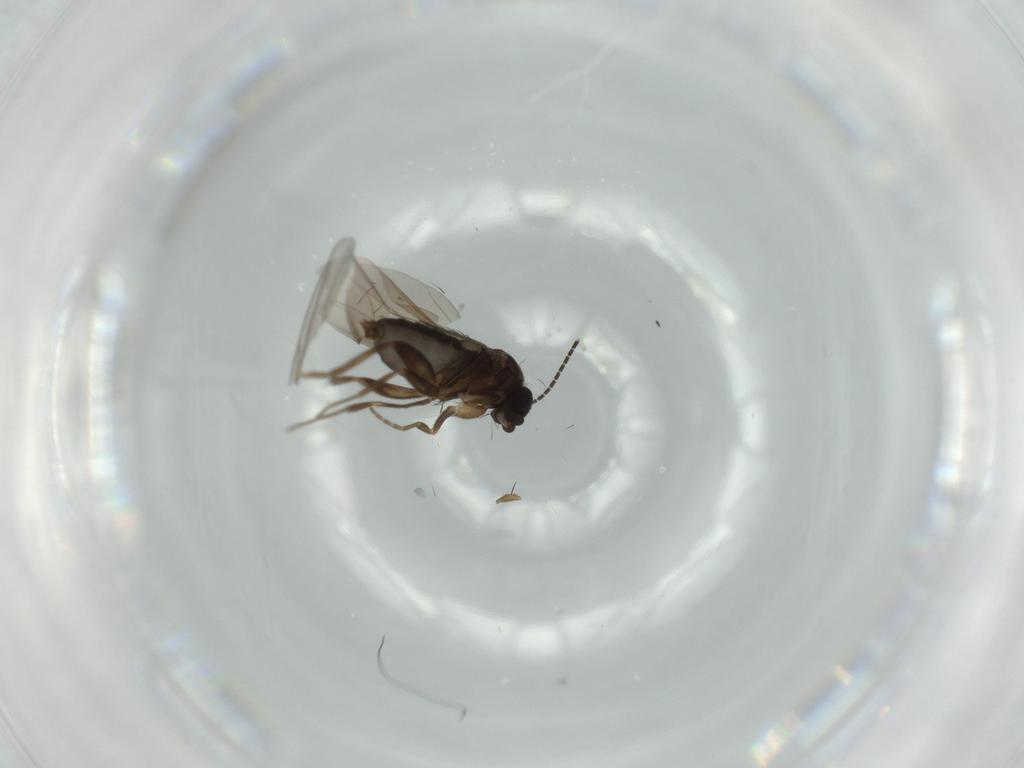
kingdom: Animalia
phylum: Arthropoda
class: Insecta
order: Diptera
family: Phoridae
